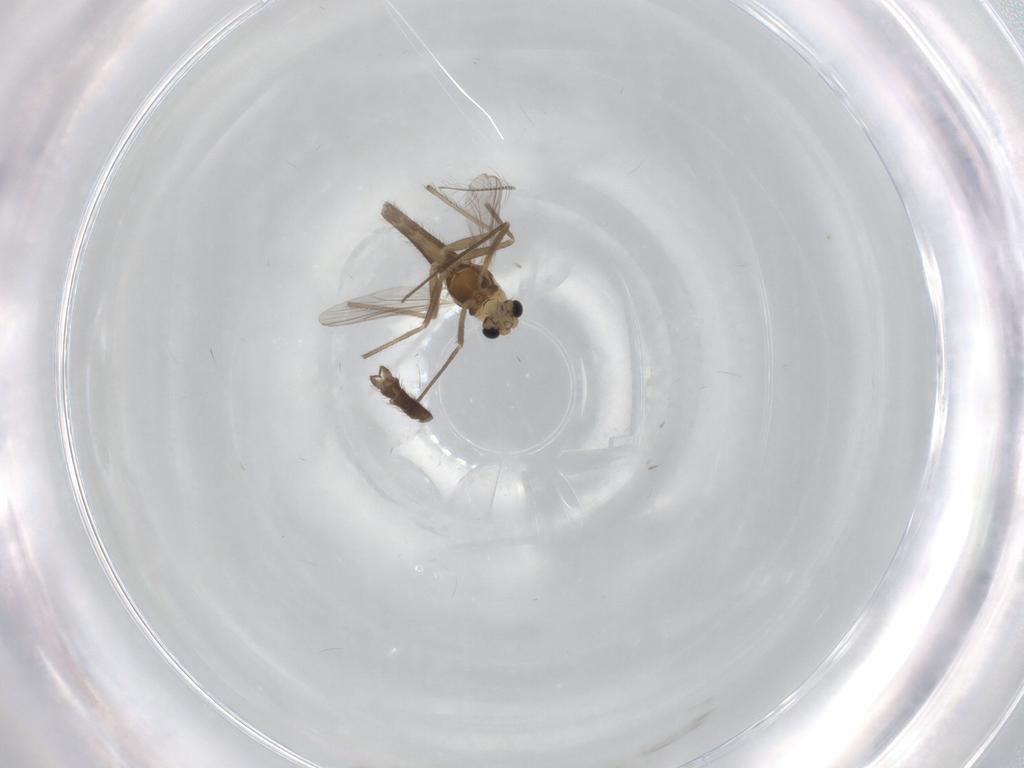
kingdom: Animalia
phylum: Arthropoda
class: Insecta
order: Diptera
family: Chironomidae
